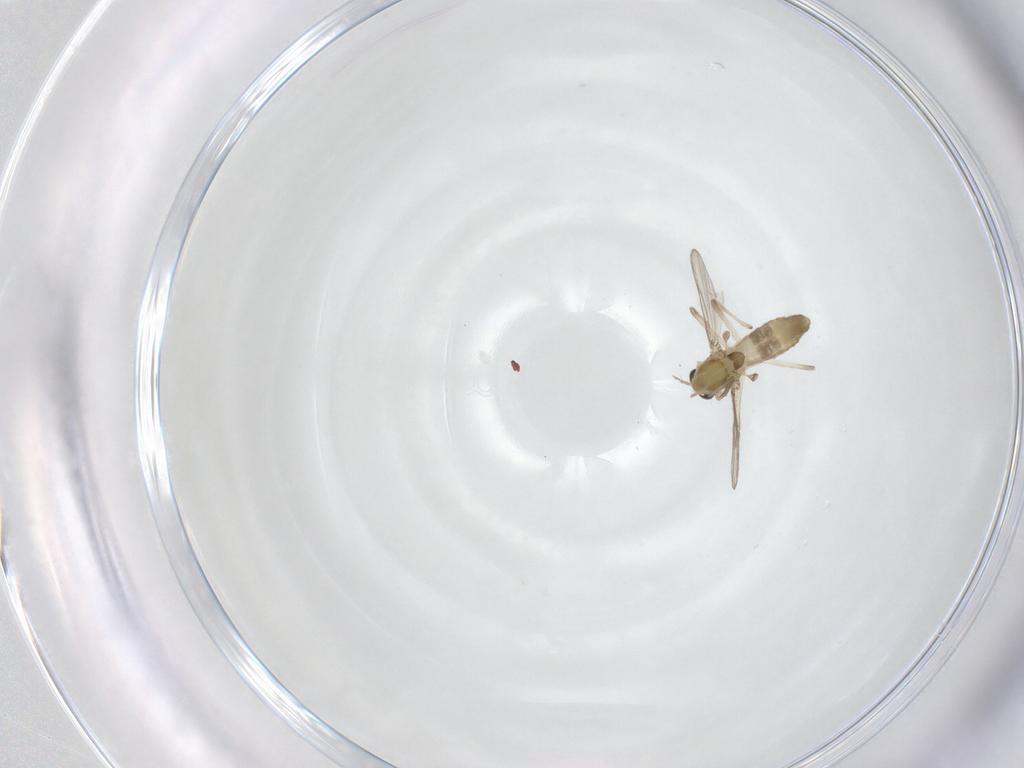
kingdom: Animalia
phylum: Arthropoda
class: Insecta
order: Diptera
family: Chironomidae
